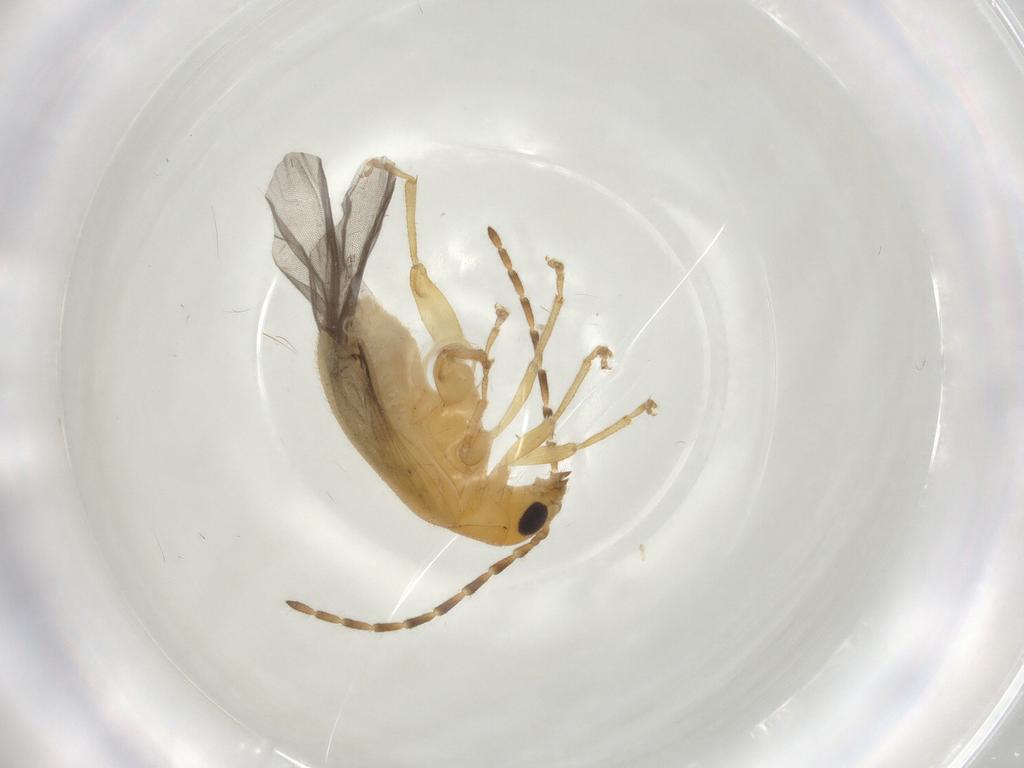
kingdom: Animalia
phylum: Arthropoda
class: Insecta
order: Coleoptera
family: Chrysomelidae
